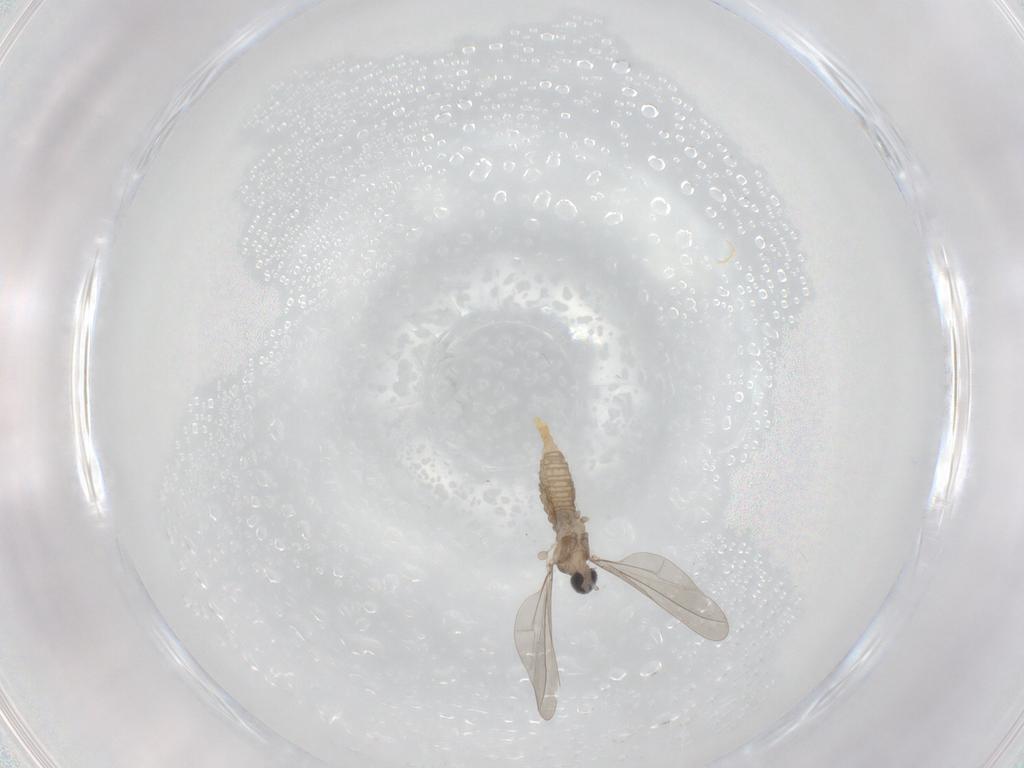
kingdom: Animalia
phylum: Arthropoda
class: Insecta
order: Diptera
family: Cecidomyiidae
